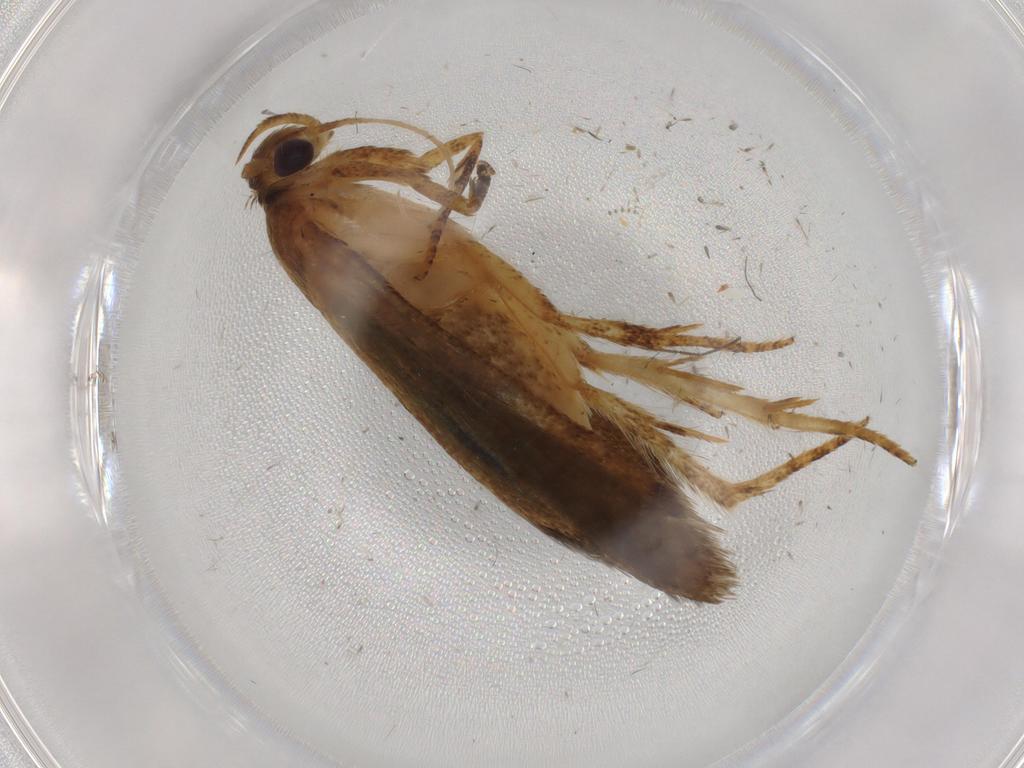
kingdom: Animalia
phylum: Arthropoda
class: Insecta
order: Lepidoptera
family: Blastobasidae
